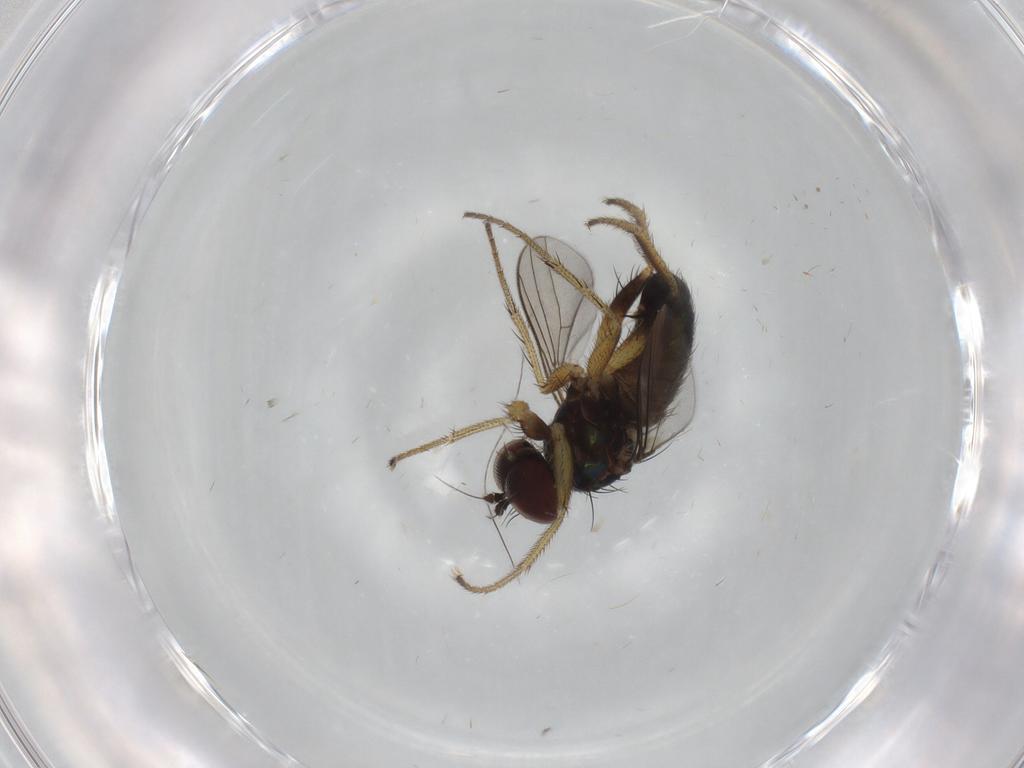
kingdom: Animalia
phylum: Arthropoda
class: Insecta
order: Diptera
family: Dolichopodidae
